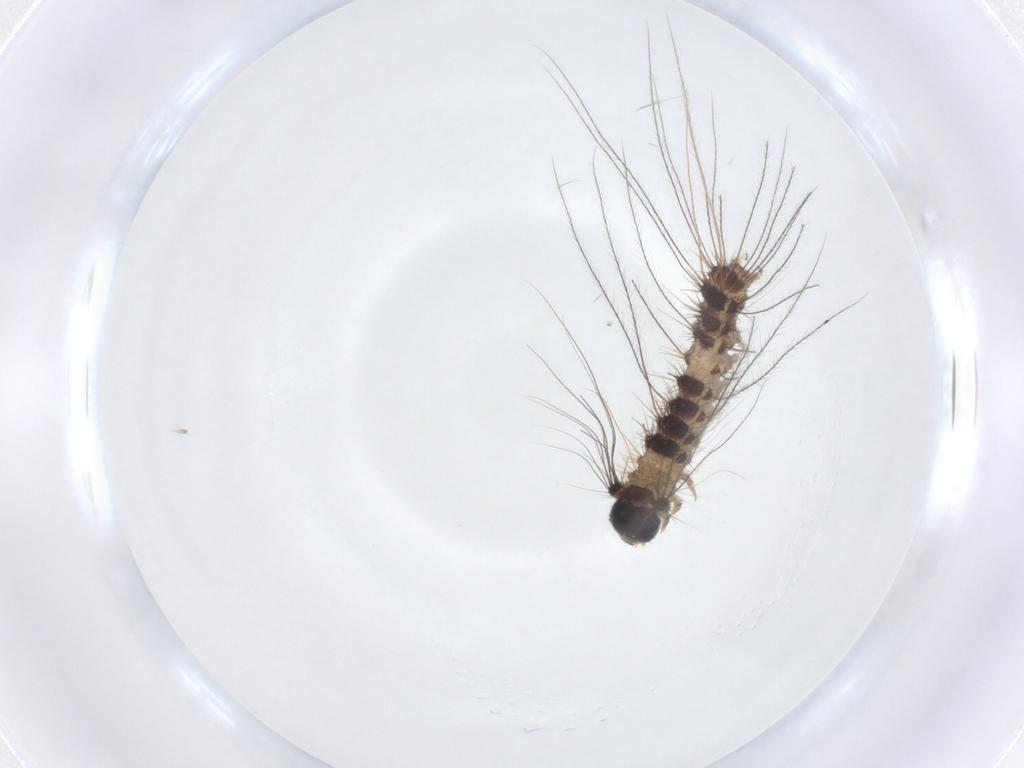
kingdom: Animalia
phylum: Arthropoda
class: Insecta
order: Lepidoptera
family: Erebidae
